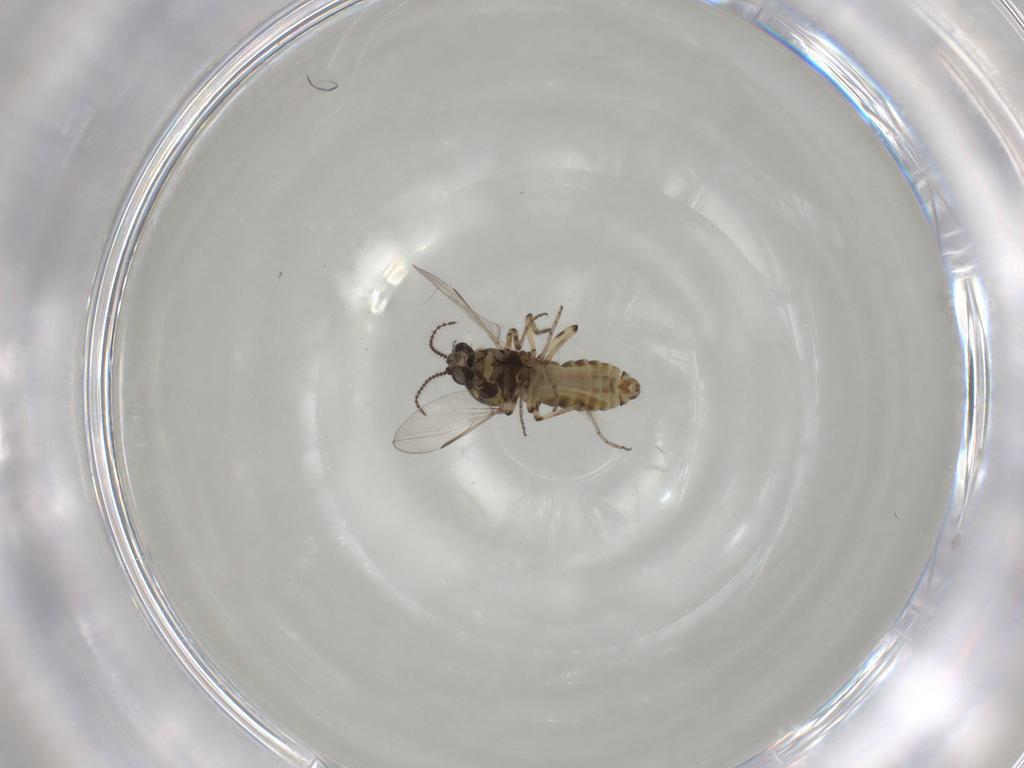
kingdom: Animalia
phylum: Arthropoda
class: Insecta
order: Diptera
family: Ceratopogonidae
